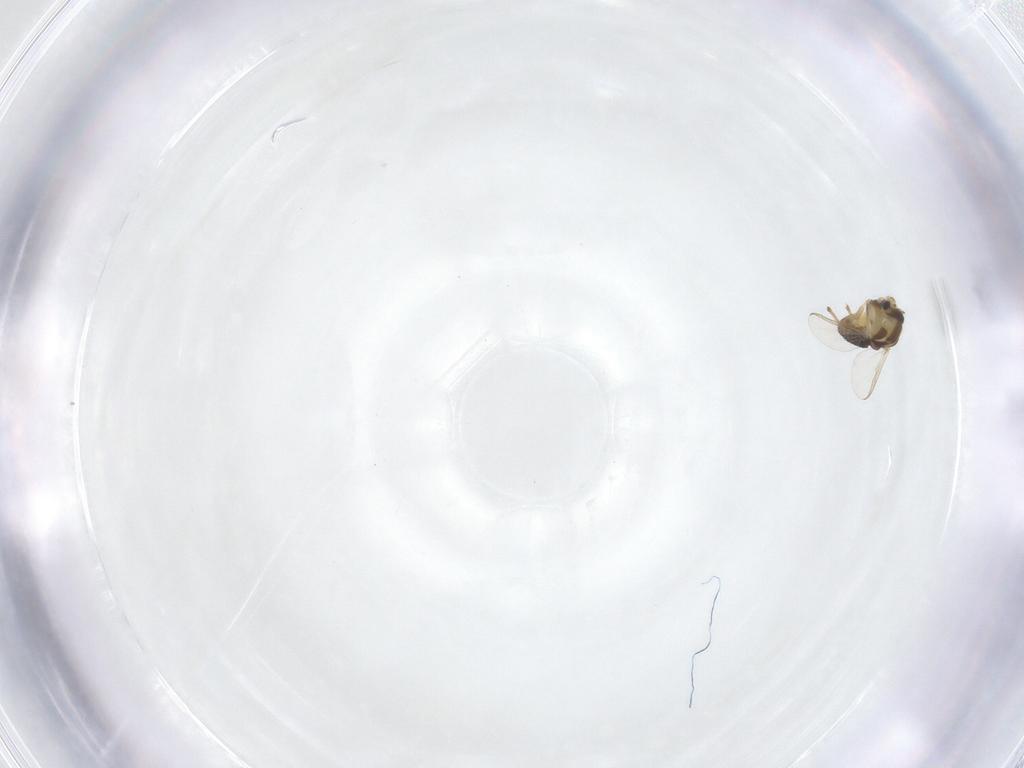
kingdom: Animalia
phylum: Arthropoda
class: Insecta
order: Diptera
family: Chironomidae
